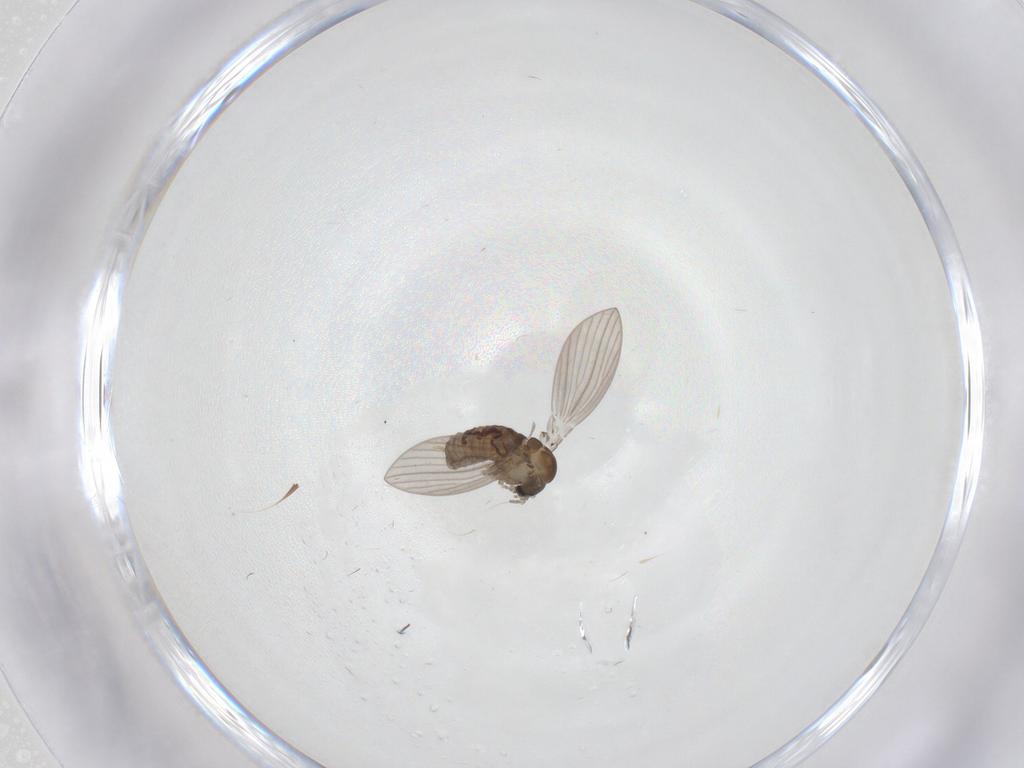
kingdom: Animalia
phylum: Arthropoda
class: Insecta
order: Diptera
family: Psychodidae
